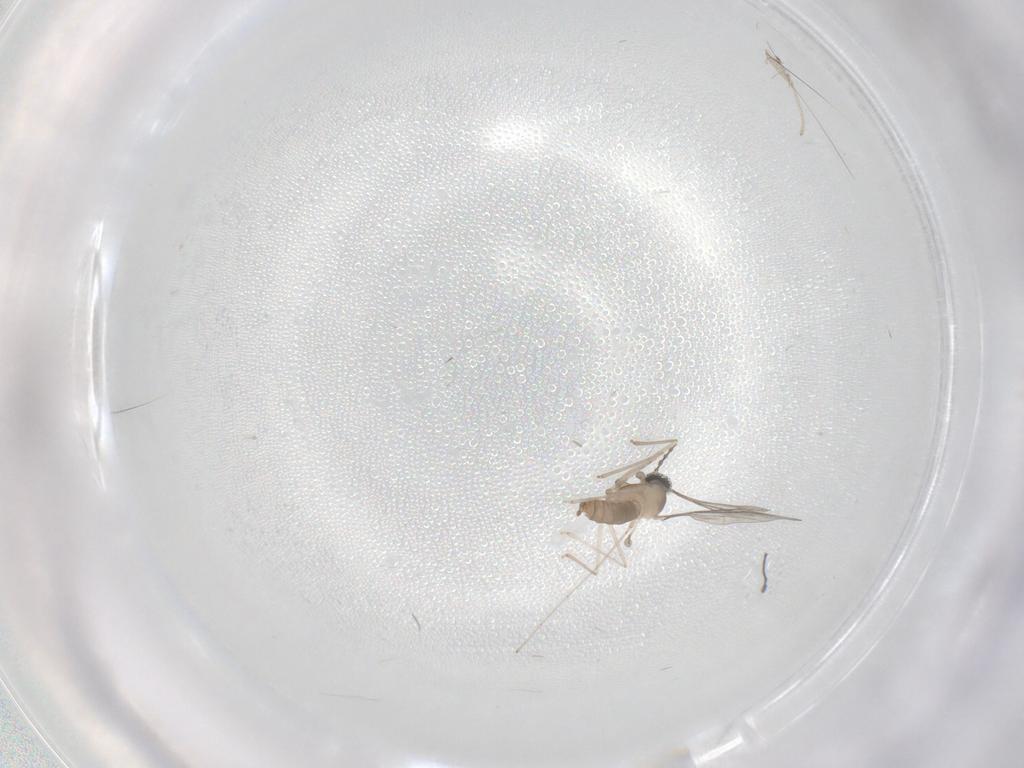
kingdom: Animalia
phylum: Arthropoda
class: Insecta
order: Diptera
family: Cecidomyiidae
